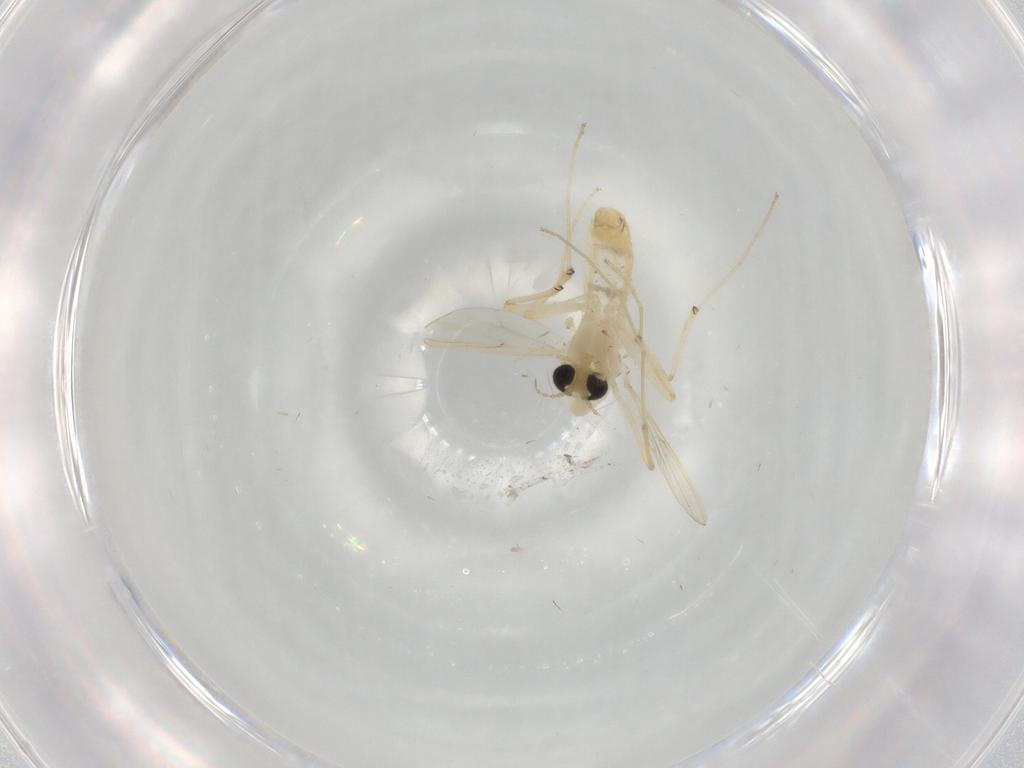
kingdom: Animalia
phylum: Arthropoda
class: Insecta
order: Diptera
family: Chironomidae
